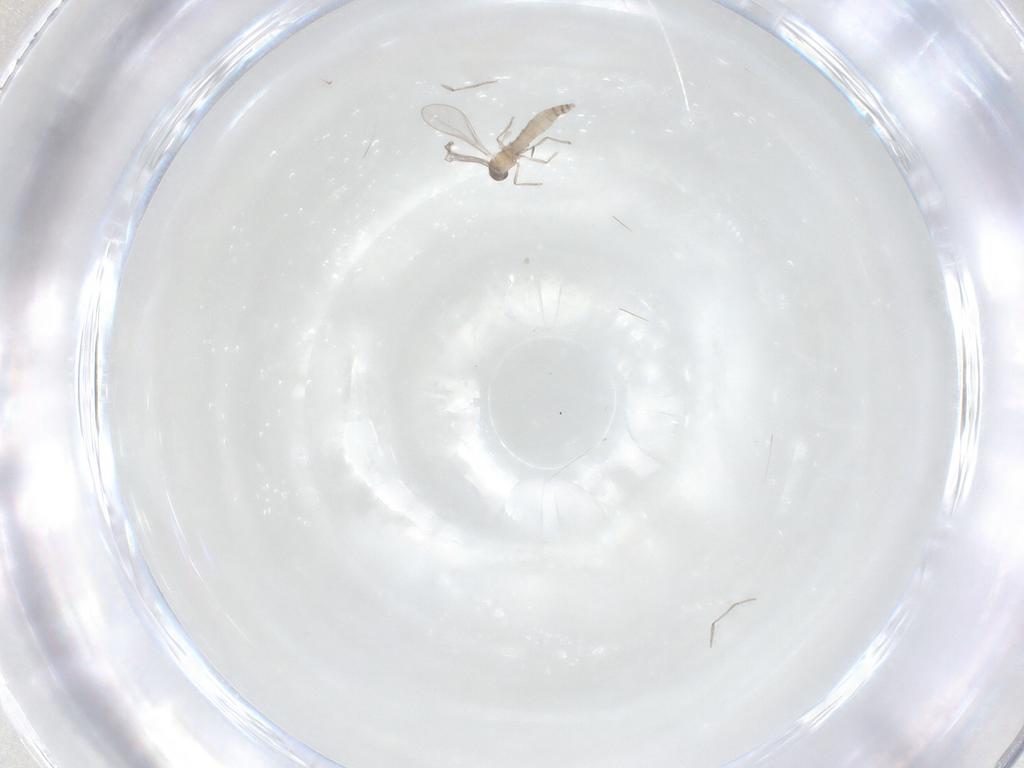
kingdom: Animalia
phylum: Arthropoda
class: Insecta
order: Diptera
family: Cecidomyiidae
